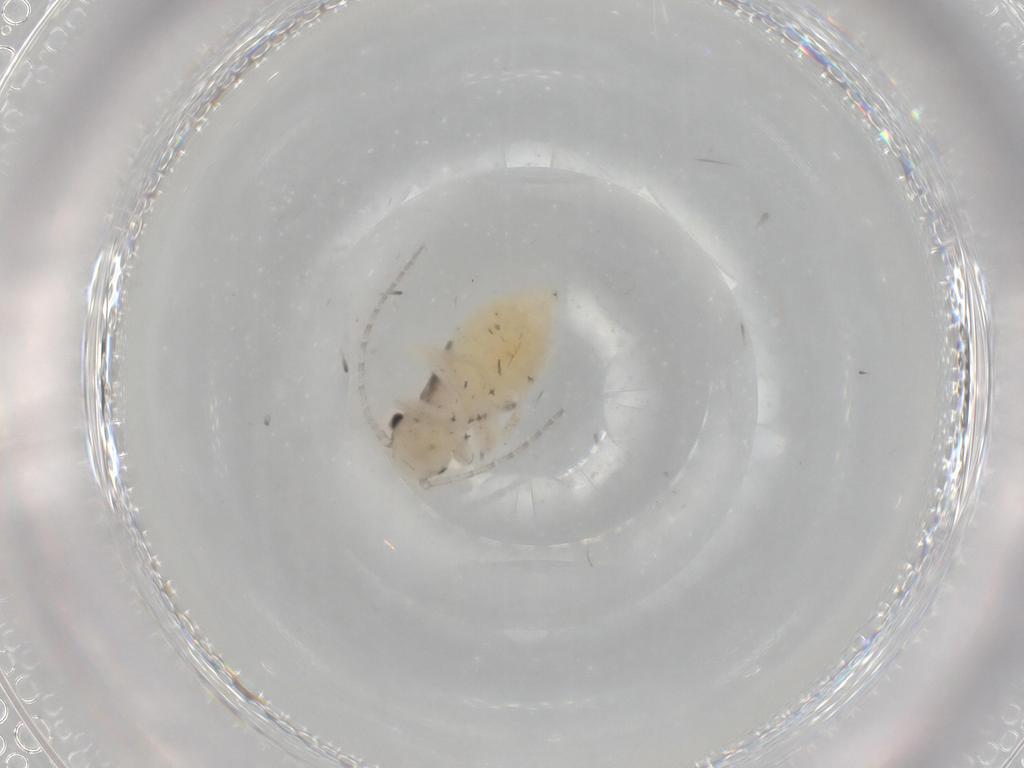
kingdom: Animalia
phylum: Arthropoda
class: Insecta
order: Psocodea
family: Amphipsocidae
